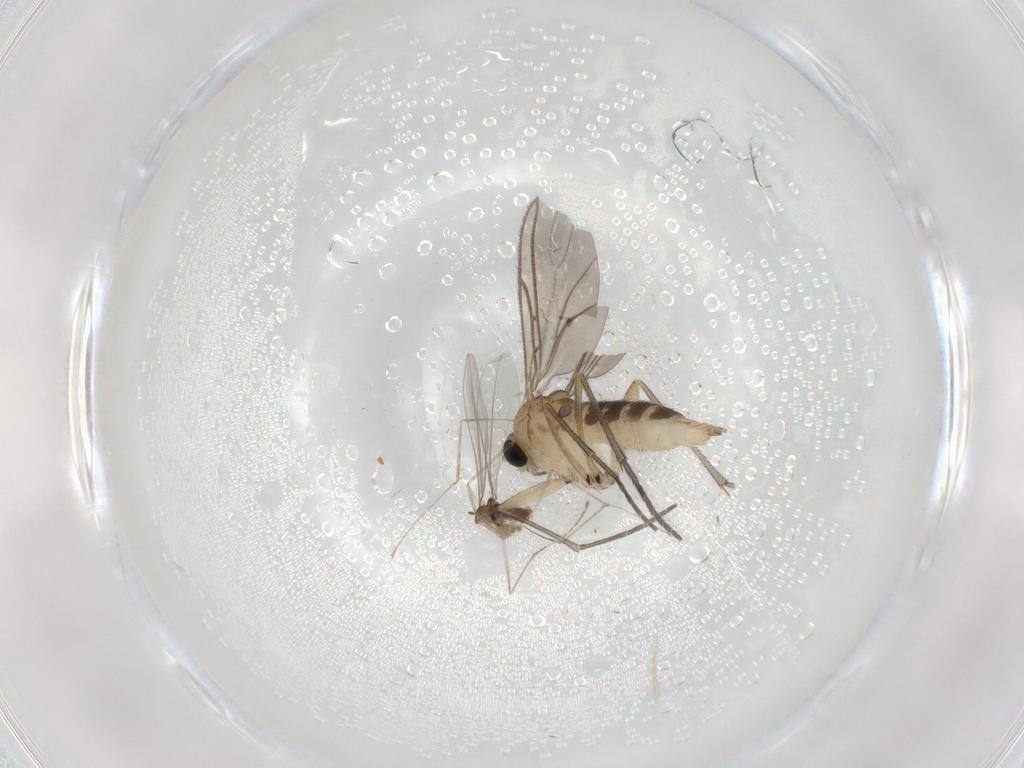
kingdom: Animalia
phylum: Arthropoda
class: Insecta
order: Diptera
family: Sciaridae
